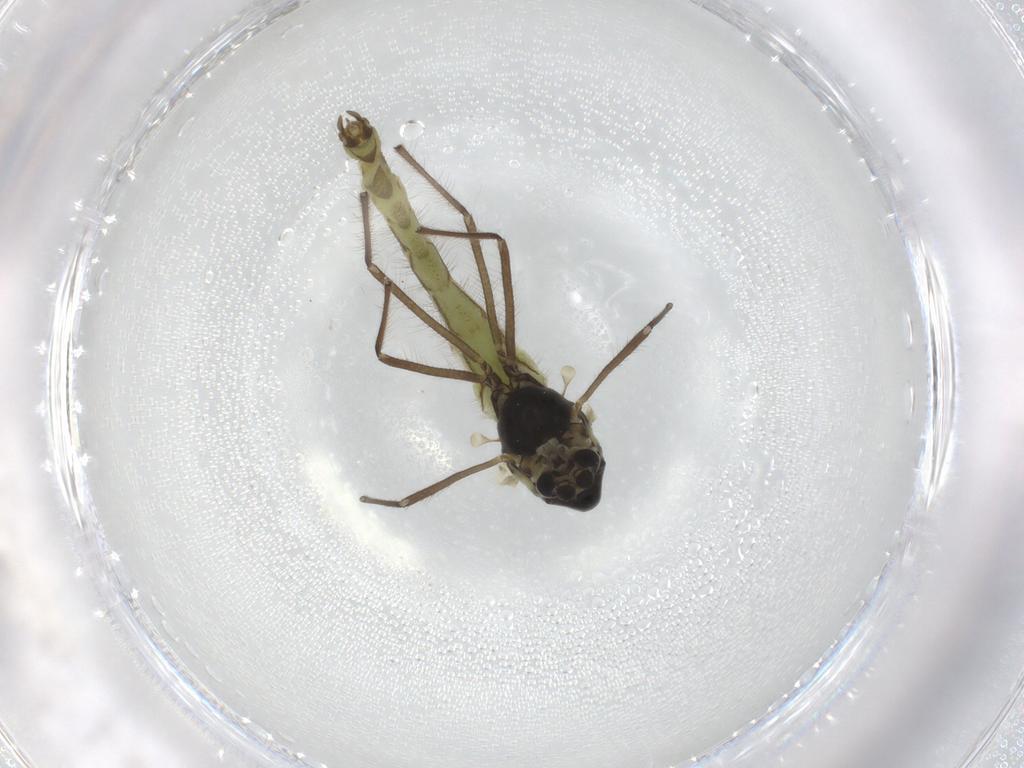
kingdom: Animalia
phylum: Arthropoda
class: Insecta
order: Diptera
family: Chironomidae
